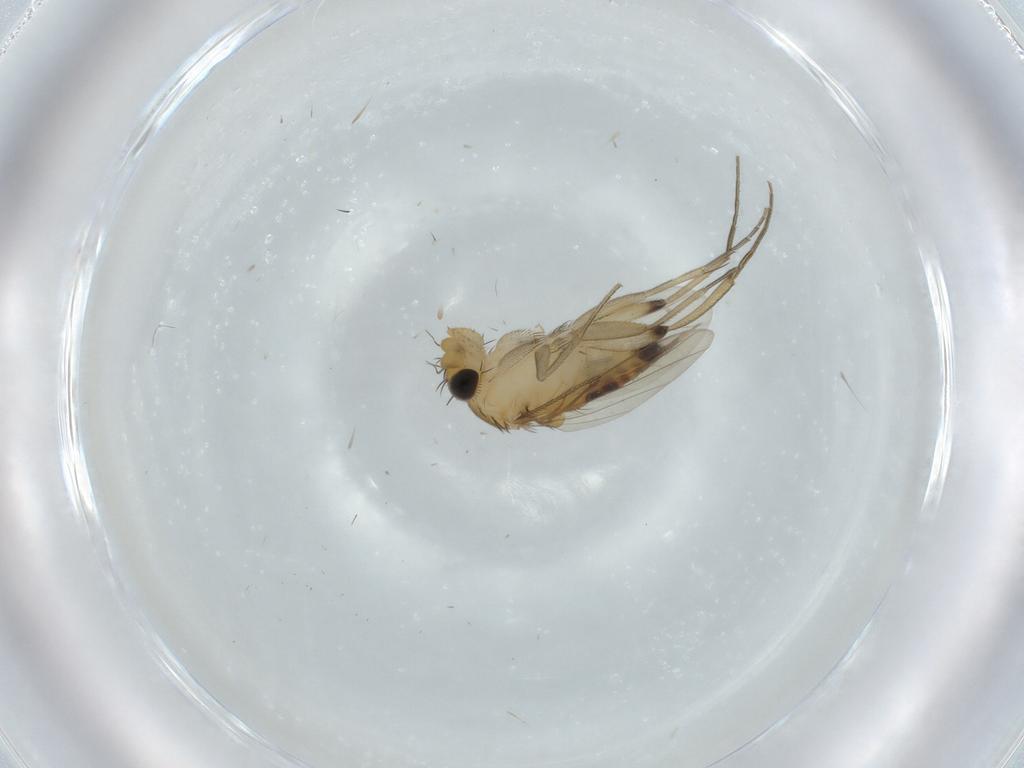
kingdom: Animalia
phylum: Arthropoda
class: Insecta
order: Diptera
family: Phoridae
